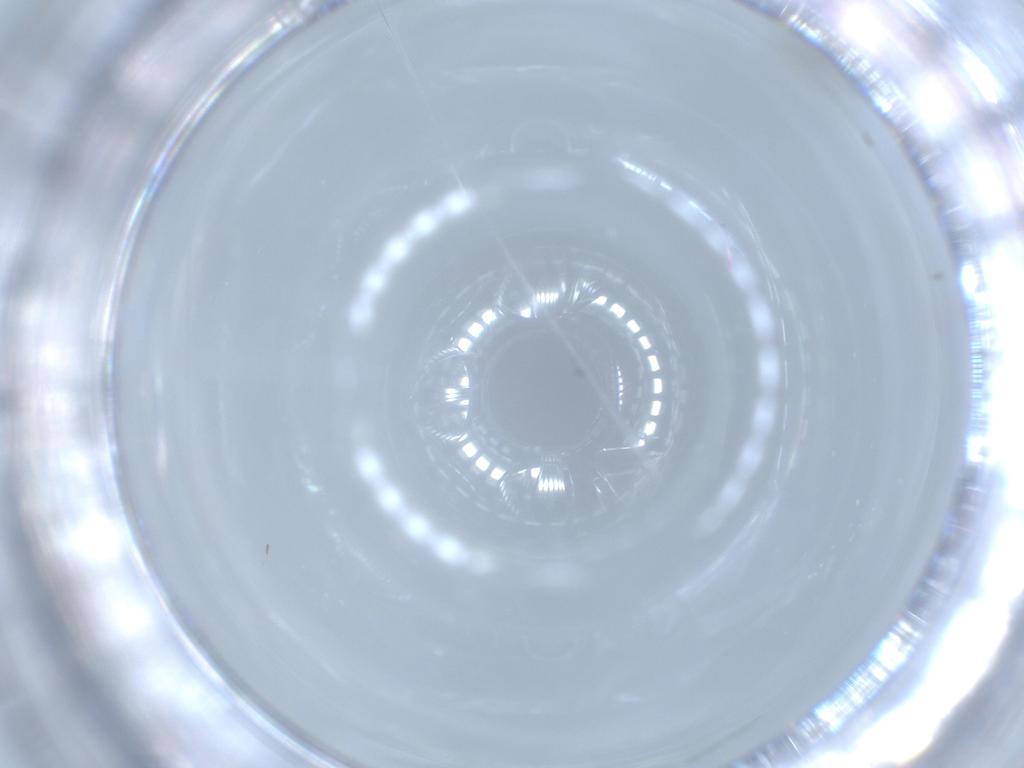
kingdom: Animalia
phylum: Arthropoda
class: Insecta
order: Diptera
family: Cecidomyiidae
